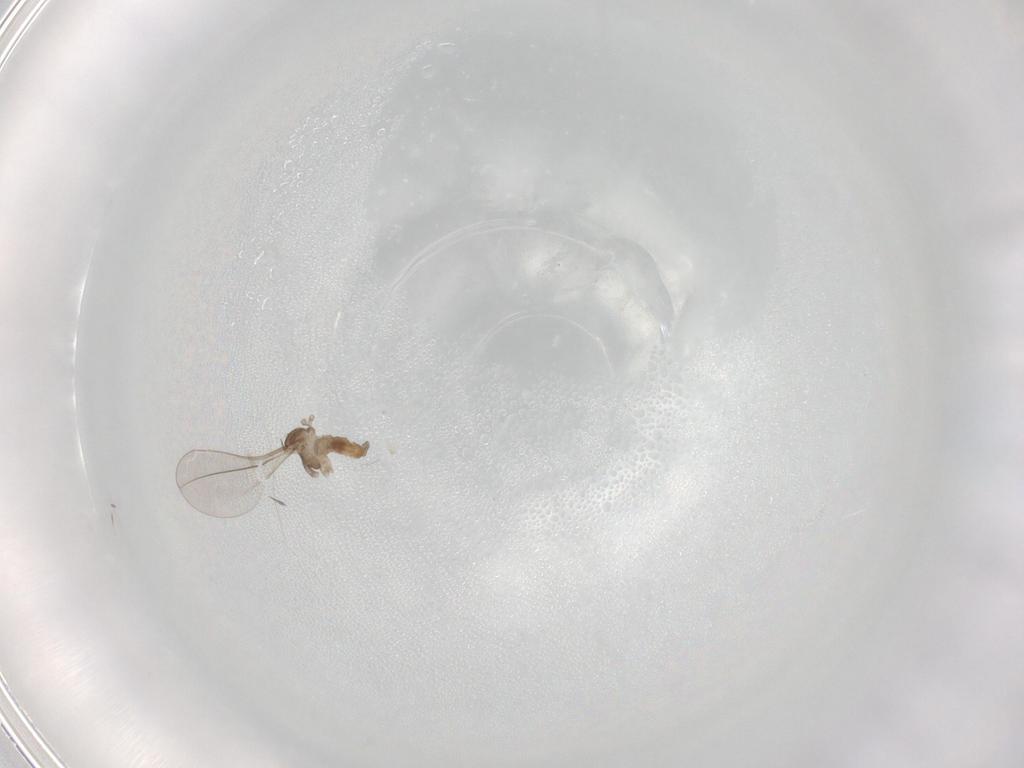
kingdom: Animalia
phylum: Arthropoda
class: Insecta
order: Diptera
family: Cecidomyiidae
